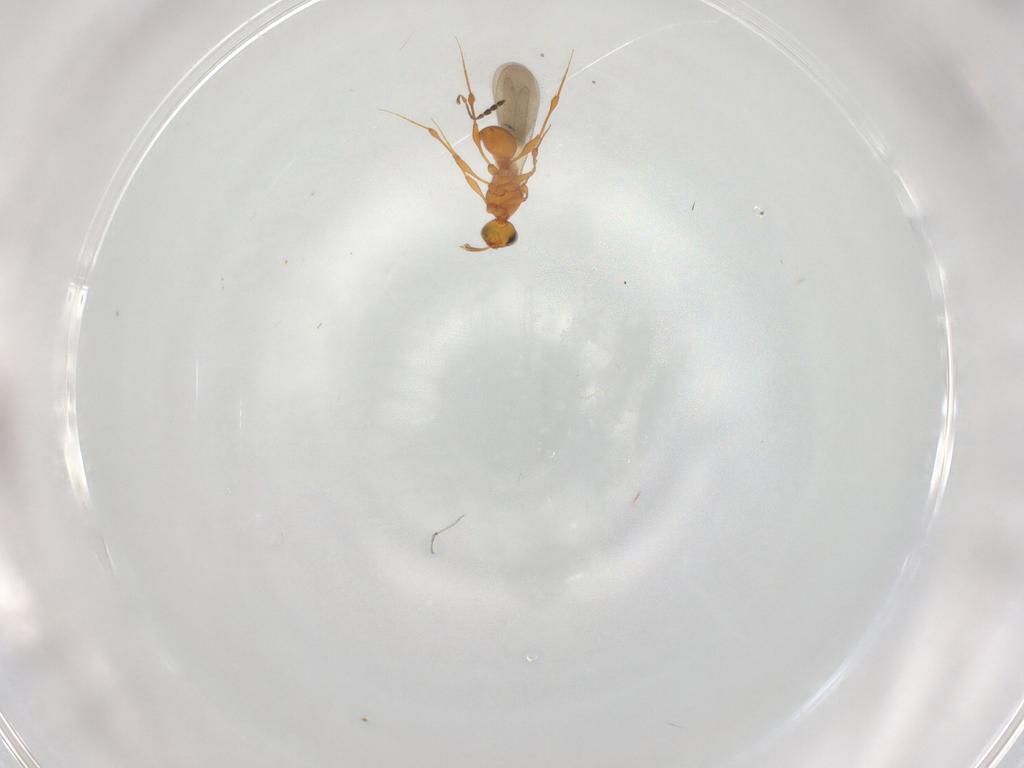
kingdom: Animalia
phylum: Arthropoda
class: Insecta
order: Hymenoptera
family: Platygastridae
